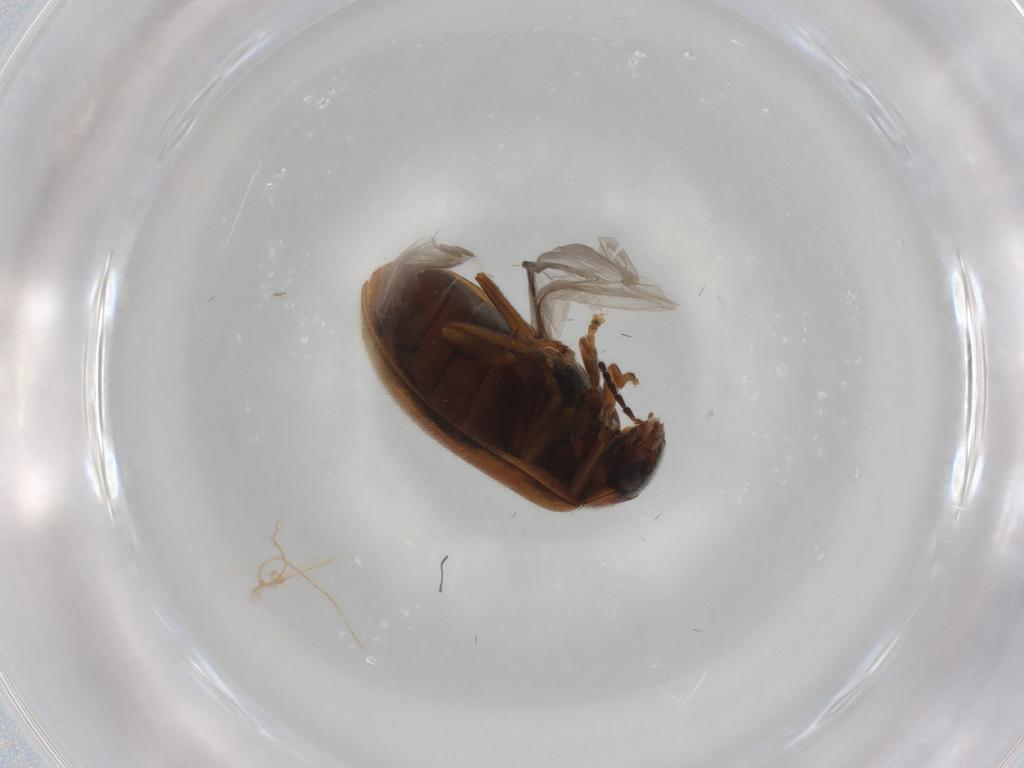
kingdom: Animalia
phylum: Arthropoda
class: Insecta
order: Coleoptera
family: Scirtidae
